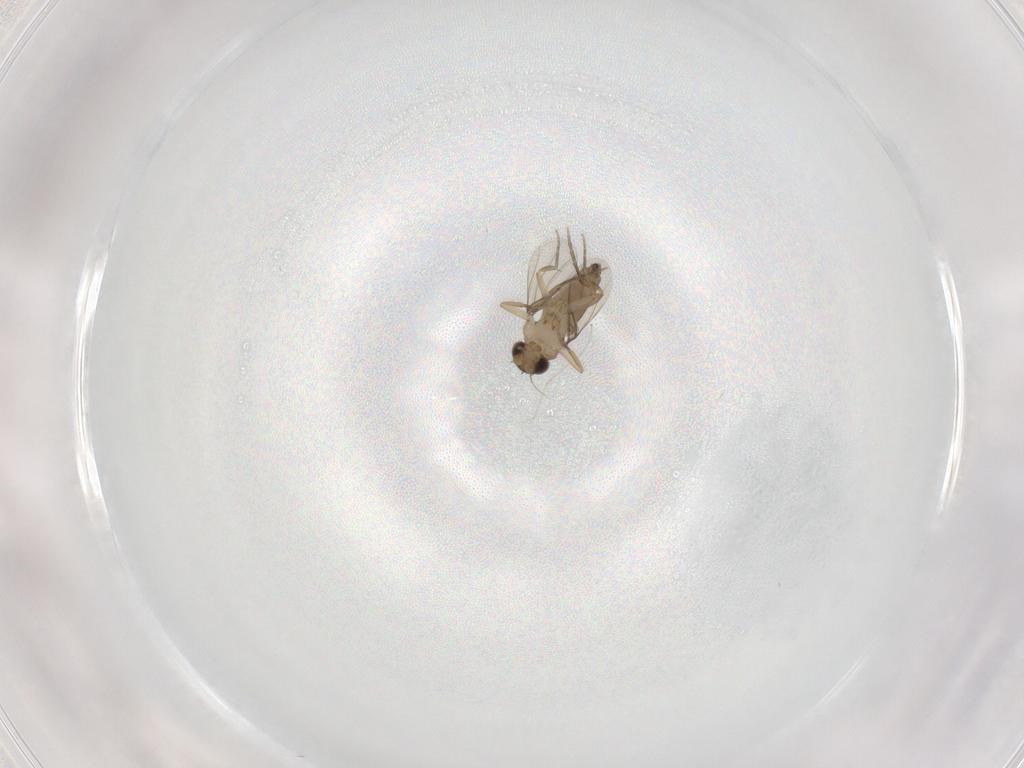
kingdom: Animalia
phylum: Arthropoda
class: Insecta
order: Diptera
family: Phoridae
